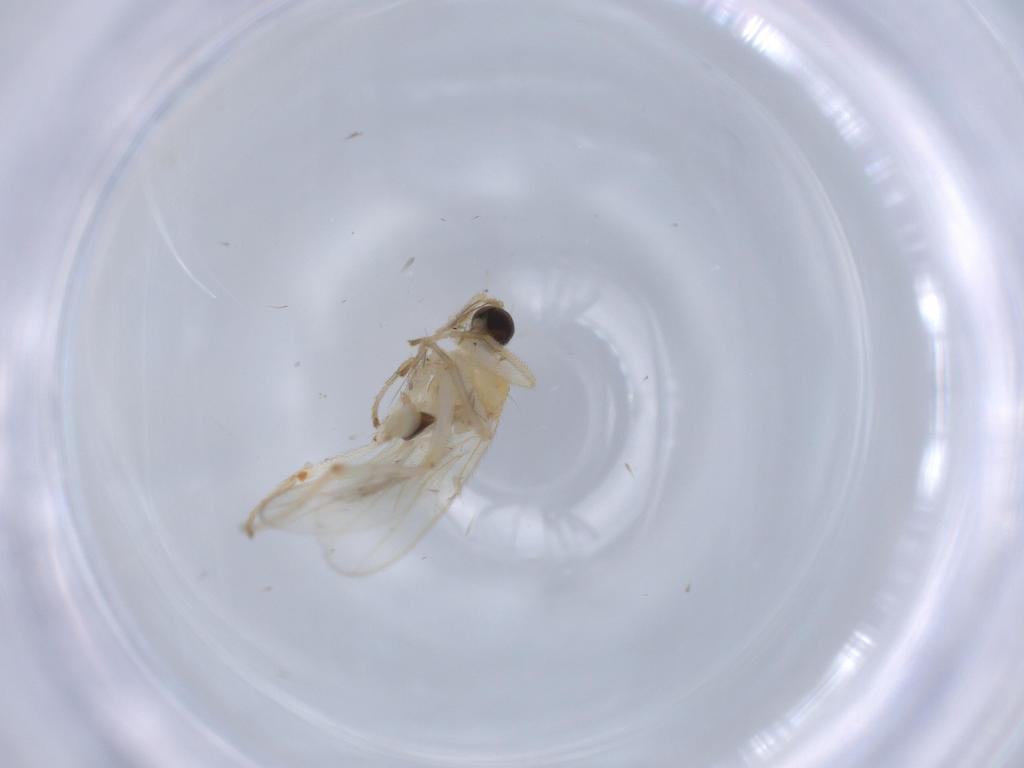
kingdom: Animalia
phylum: Arthropoda
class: Insecta
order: Diptera
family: Hybotidae
